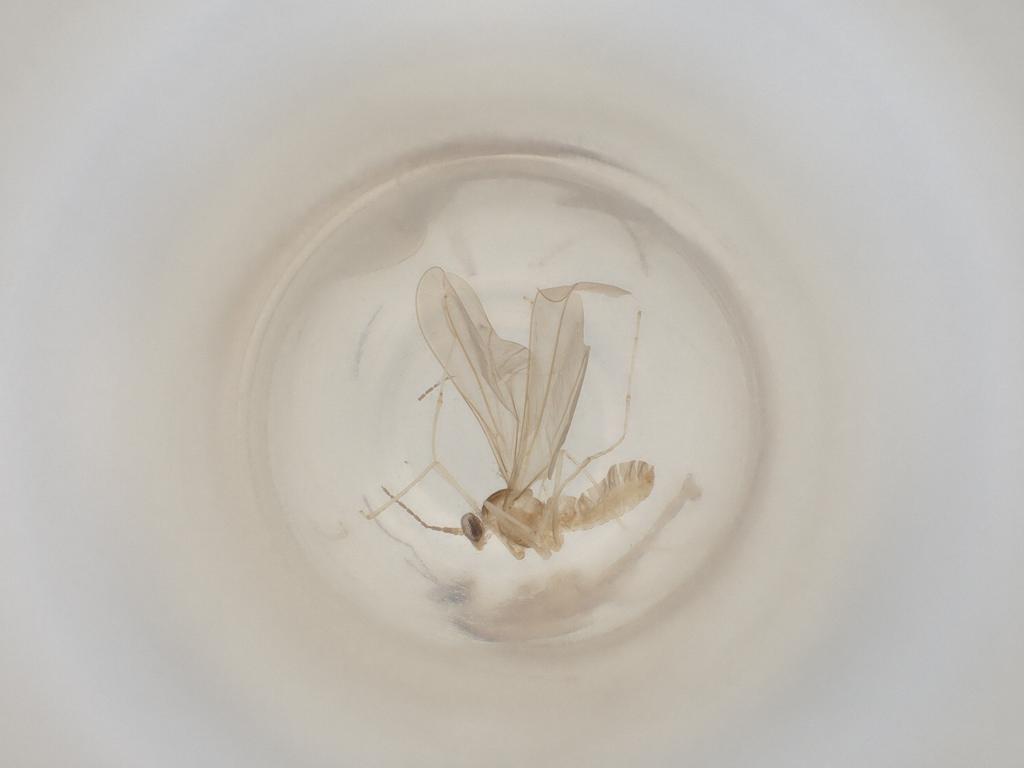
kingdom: Animalia
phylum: Arthropoda
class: Insecta
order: Diptera
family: Cecidomyiidae
